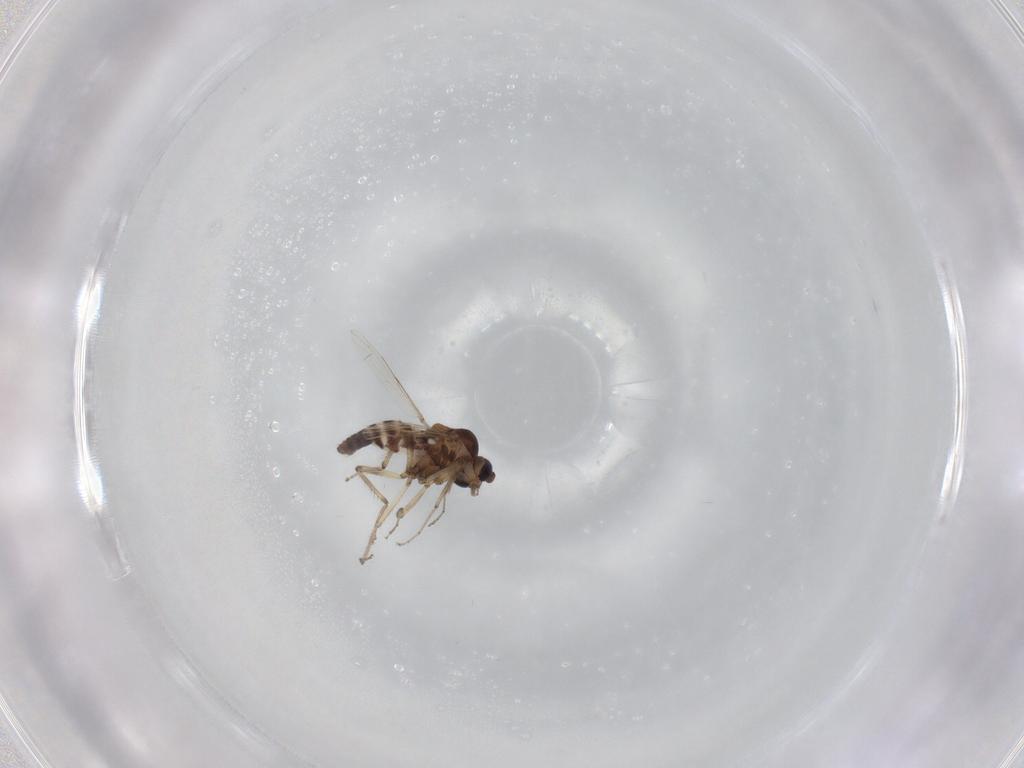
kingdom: Animalia
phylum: Arthropoda
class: Insecta
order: Diptera
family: Ceratopogonidae
